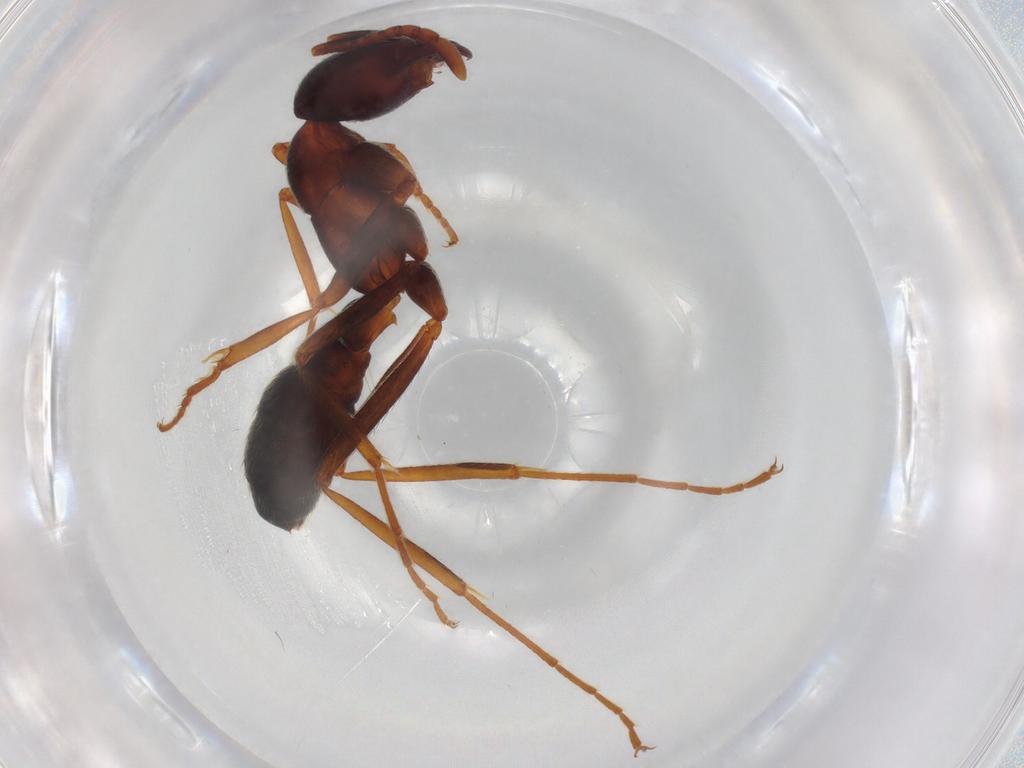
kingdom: Animalia
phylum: Arthropoda
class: Insecta
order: Hymenoptera
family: Formicidae
